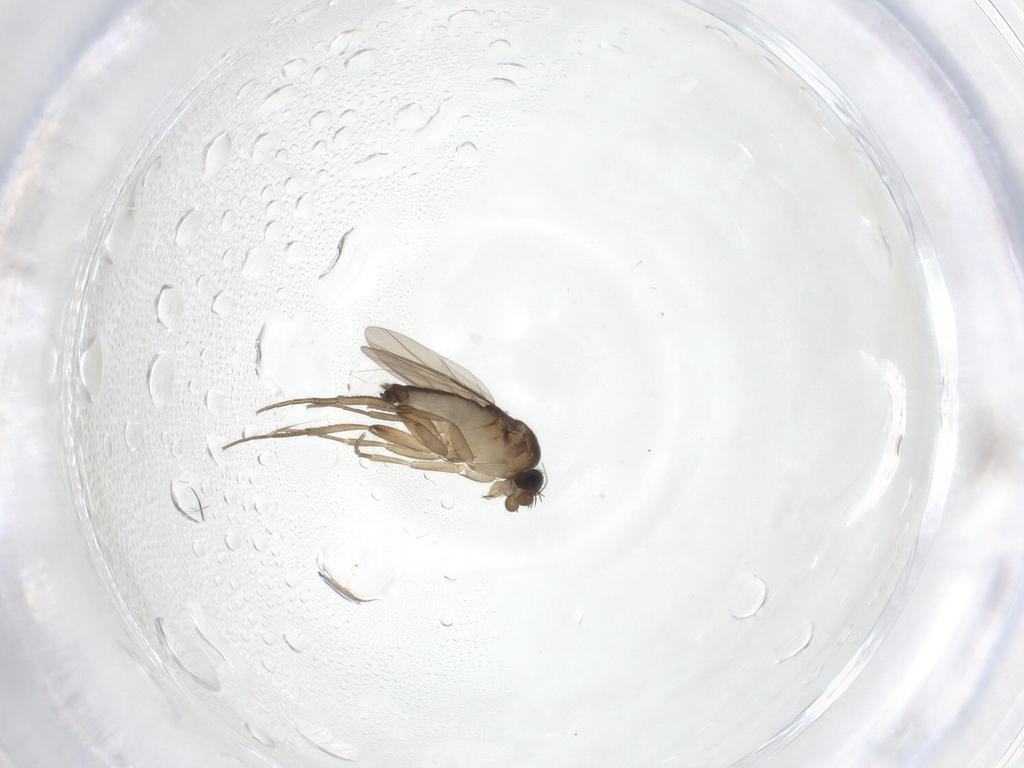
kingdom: Animalia
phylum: Arthropoda
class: Insecta
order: Diptera
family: Phoridae
